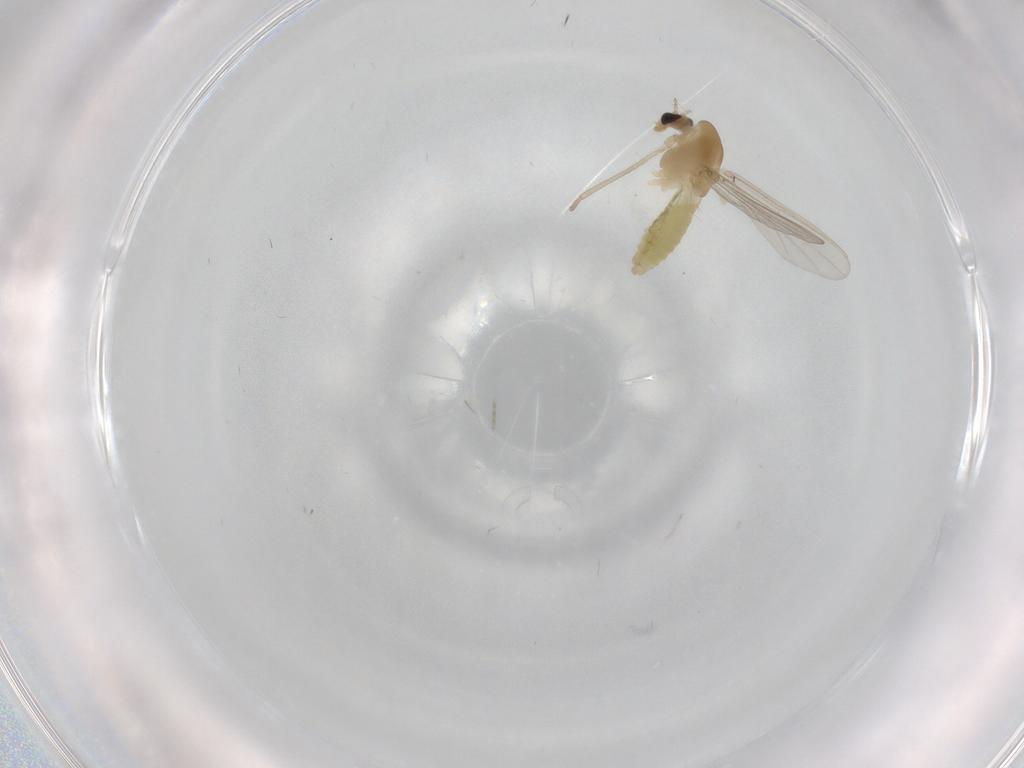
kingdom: Animalia
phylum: Arthropoda
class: Insecta
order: Diptera
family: Chironomidae
